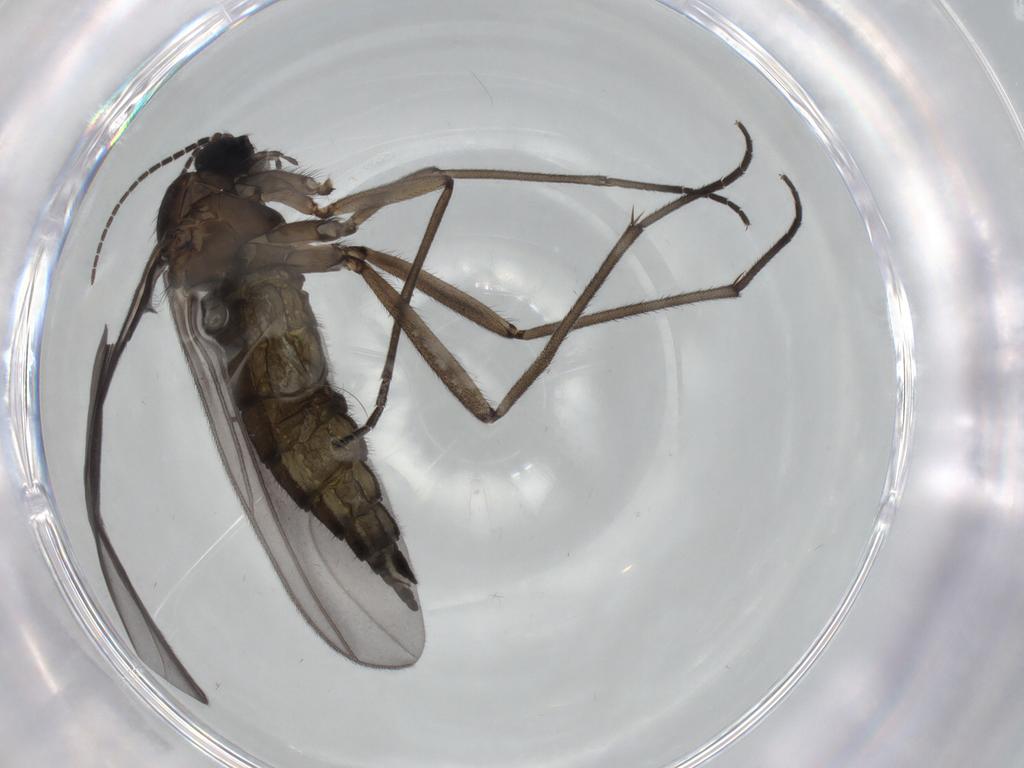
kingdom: Animalia
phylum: Arthropoda
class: Insecta
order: Diptera
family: Sciaridae
